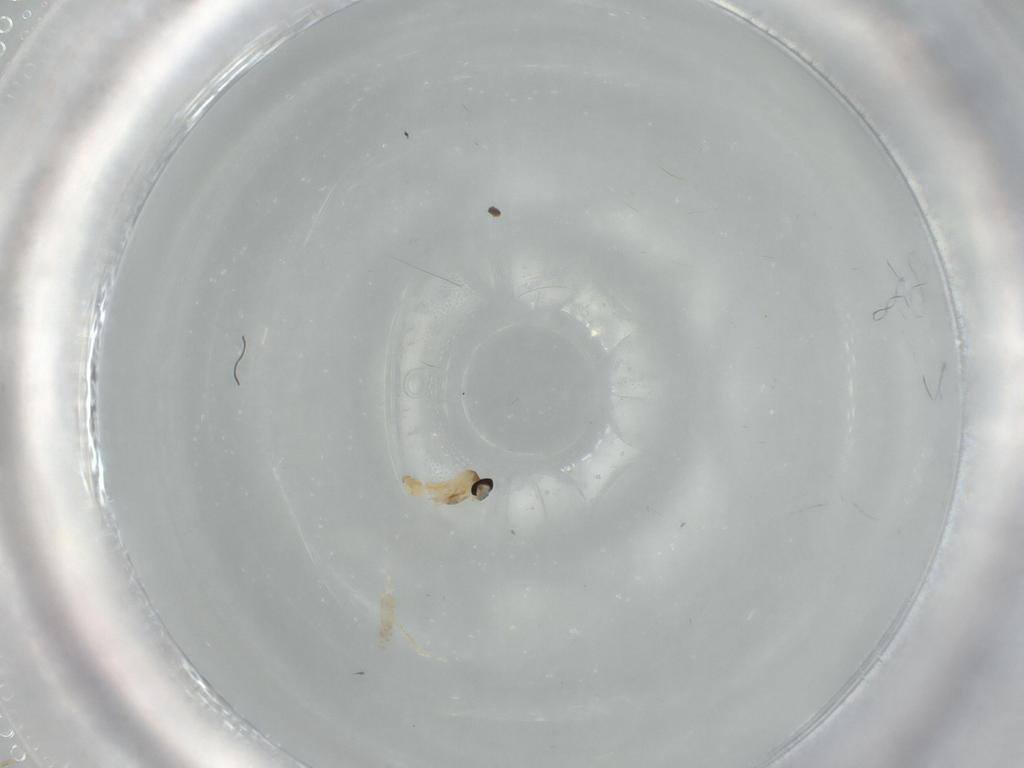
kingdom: Animalia
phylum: Arthropoda
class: Insecta
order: Diptera
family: Cecidomyiidae
